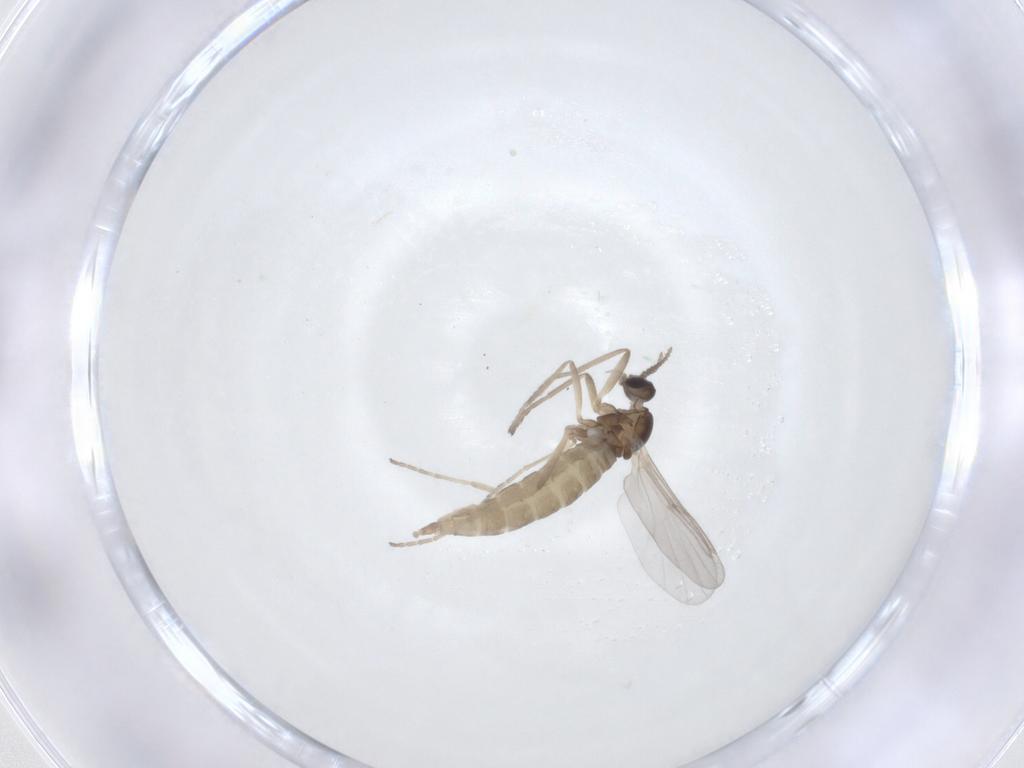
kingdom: Animalia
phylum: Arthropoda
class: Insecta
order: Diptera
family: Cecidomyiidae
